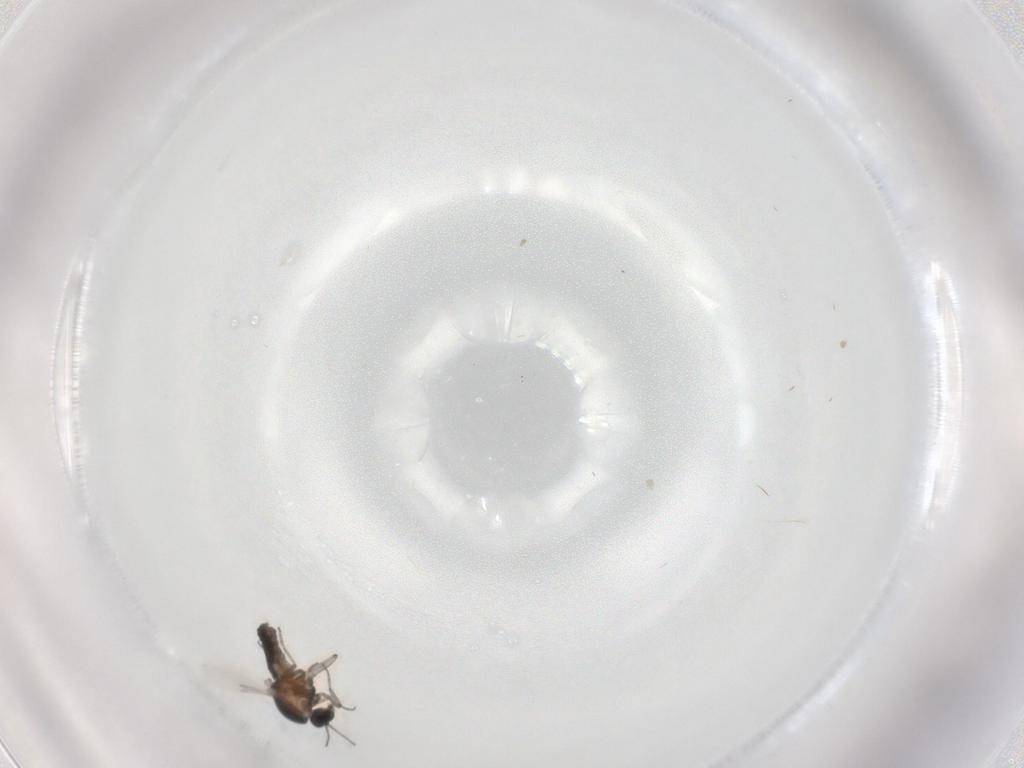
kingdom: Animalia
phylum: Arthropoda
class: Insecta
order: Diptera
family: Ceratopogonidae
